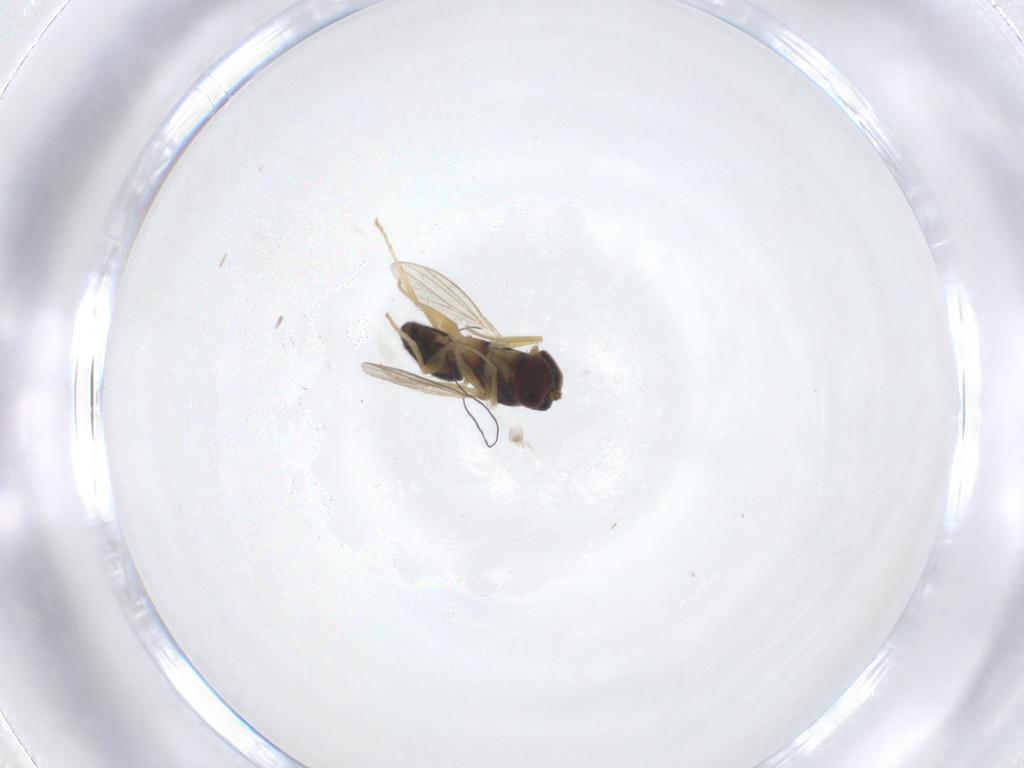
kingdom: Animalia
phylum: Arthropoda
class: Insecta
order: Diptera
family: Dolichopodidae
